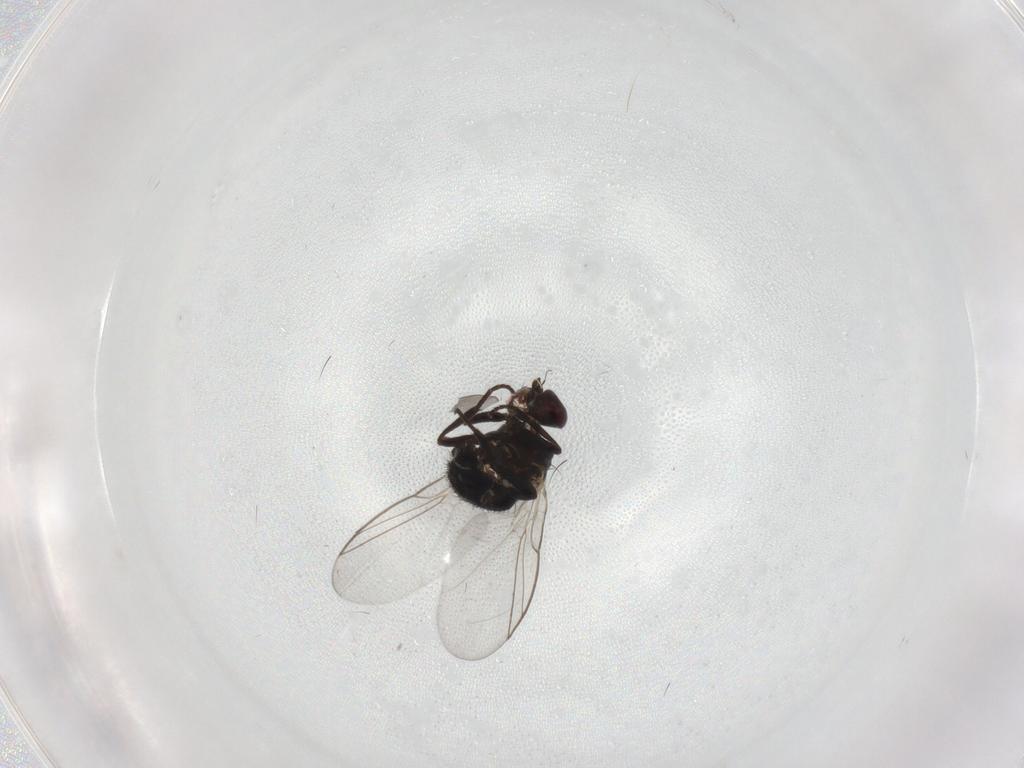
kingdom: Animalia
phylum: Arthropoda
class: Insecta
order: Diptera
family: Agromyzidae
